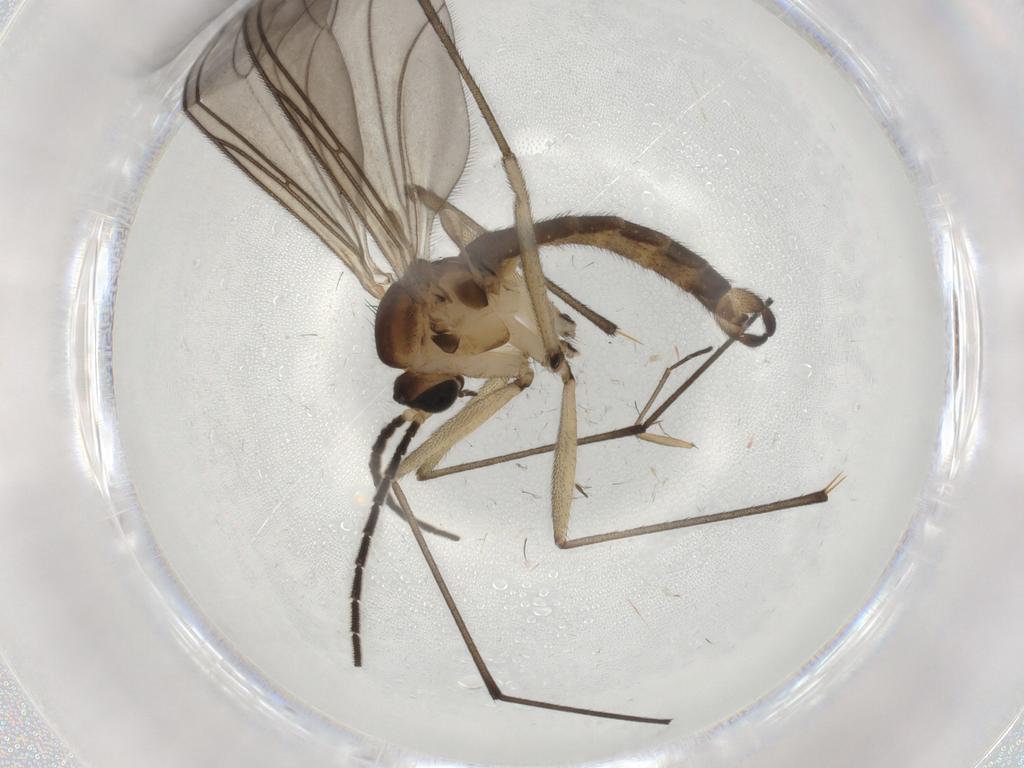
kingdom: Animalia
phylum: Arthropoda
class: Insecta
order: Diptera
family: Sciaridae
